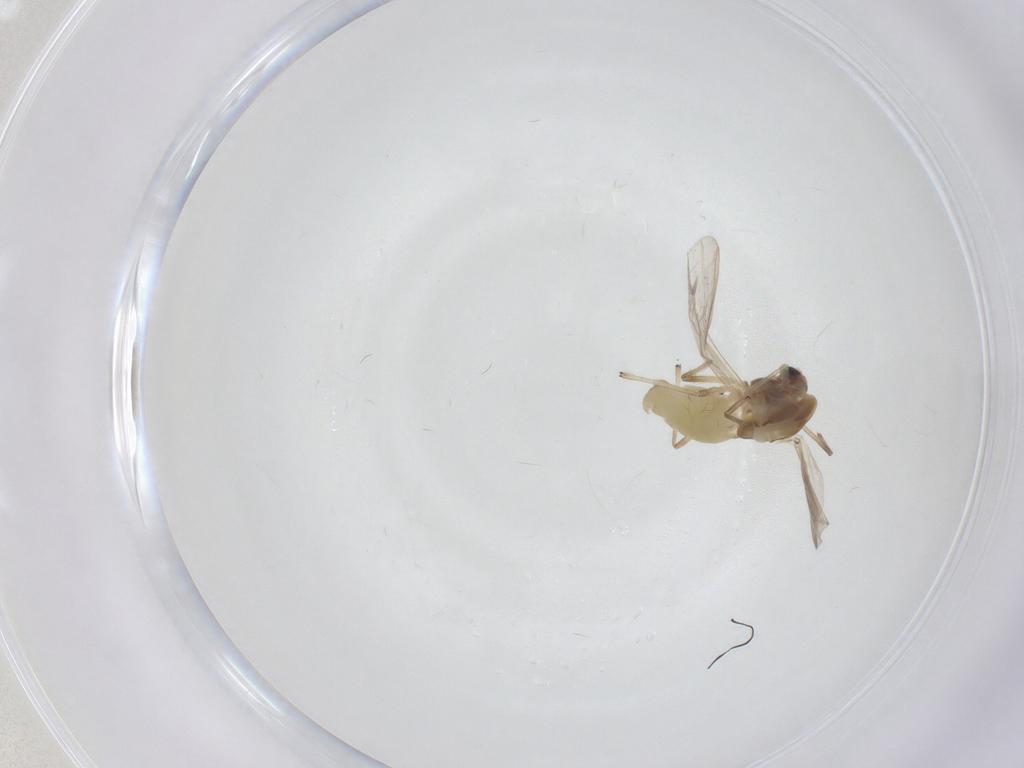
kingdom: Animalia
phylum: Arthropoda
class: Insecta
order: Diptera
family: Chironomidae
